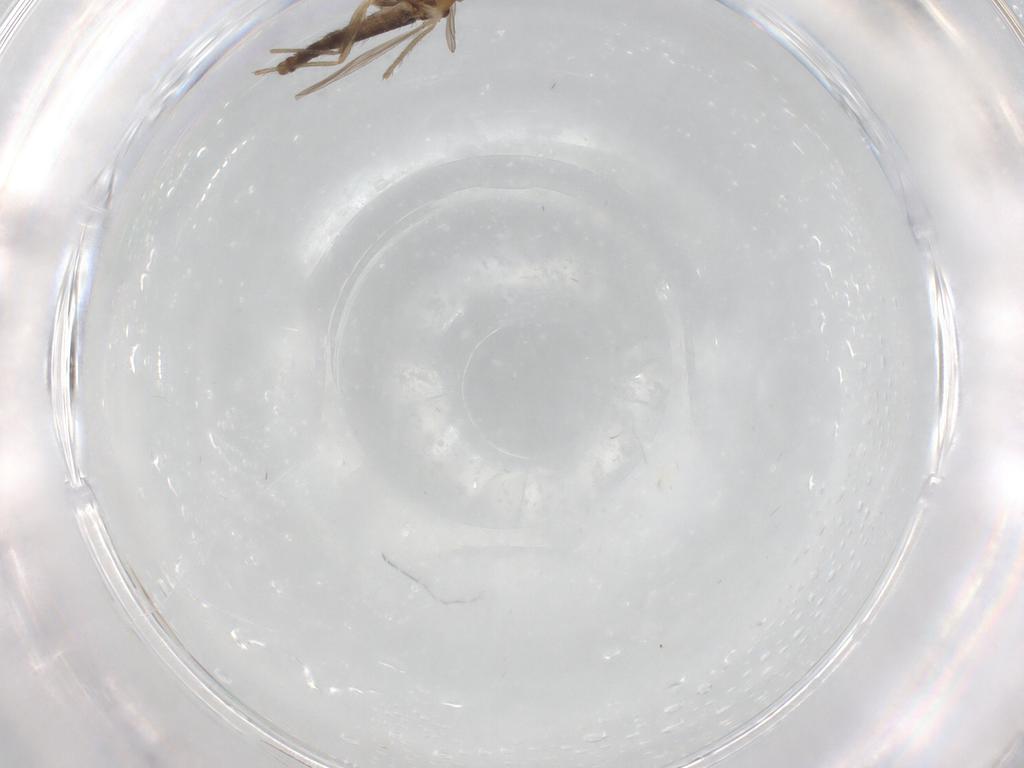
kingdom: Animalia
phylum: Arthropoda
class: Insecta
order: Diptera
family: Chironomidae
